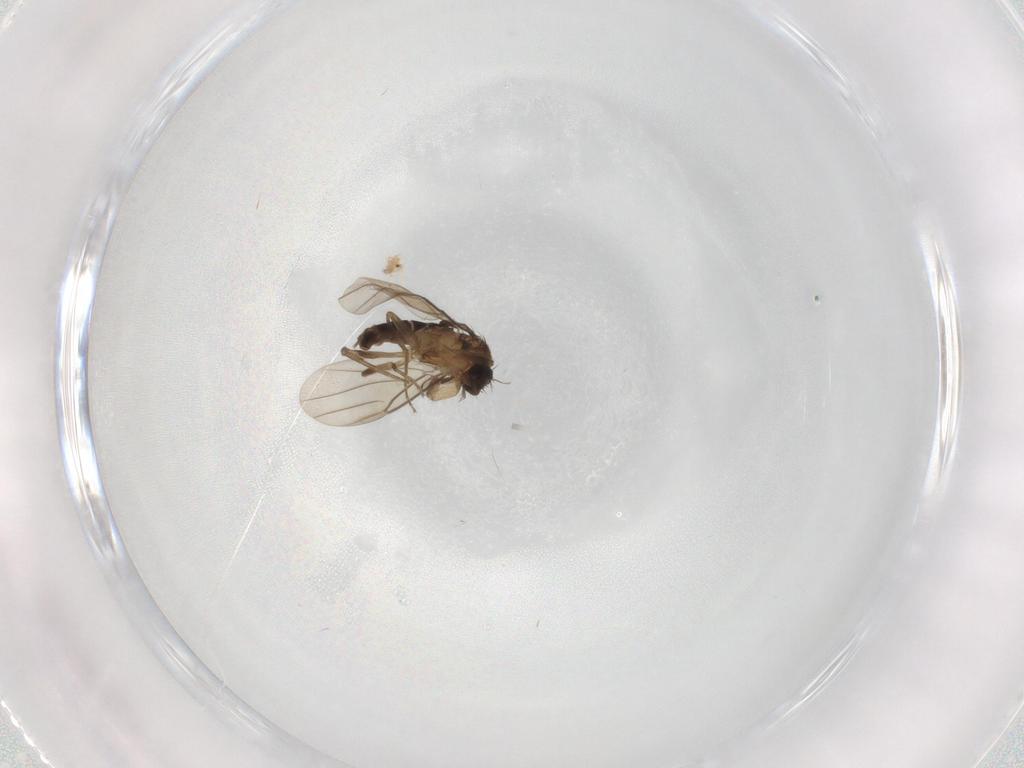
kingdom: Animalia
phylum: Arthropoda
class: Insecta
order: Diptera
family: Phoridae
